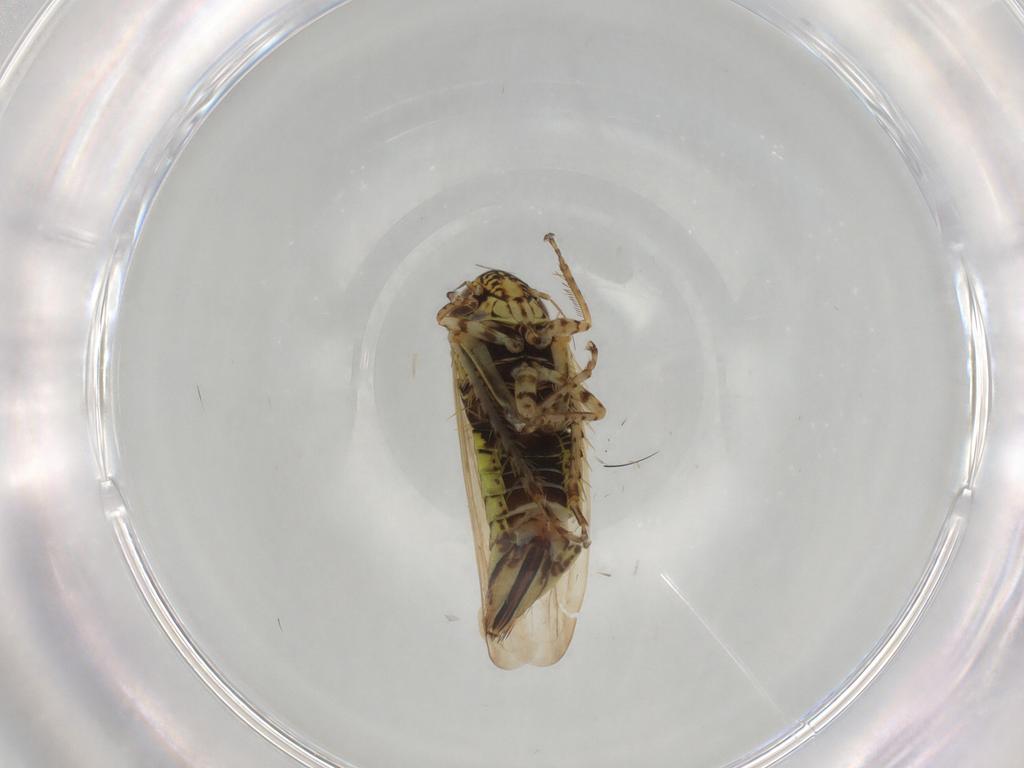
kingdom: Animalia
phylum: Arthropoda
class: Insecta
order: Hemiptera
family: Cicadellidae
